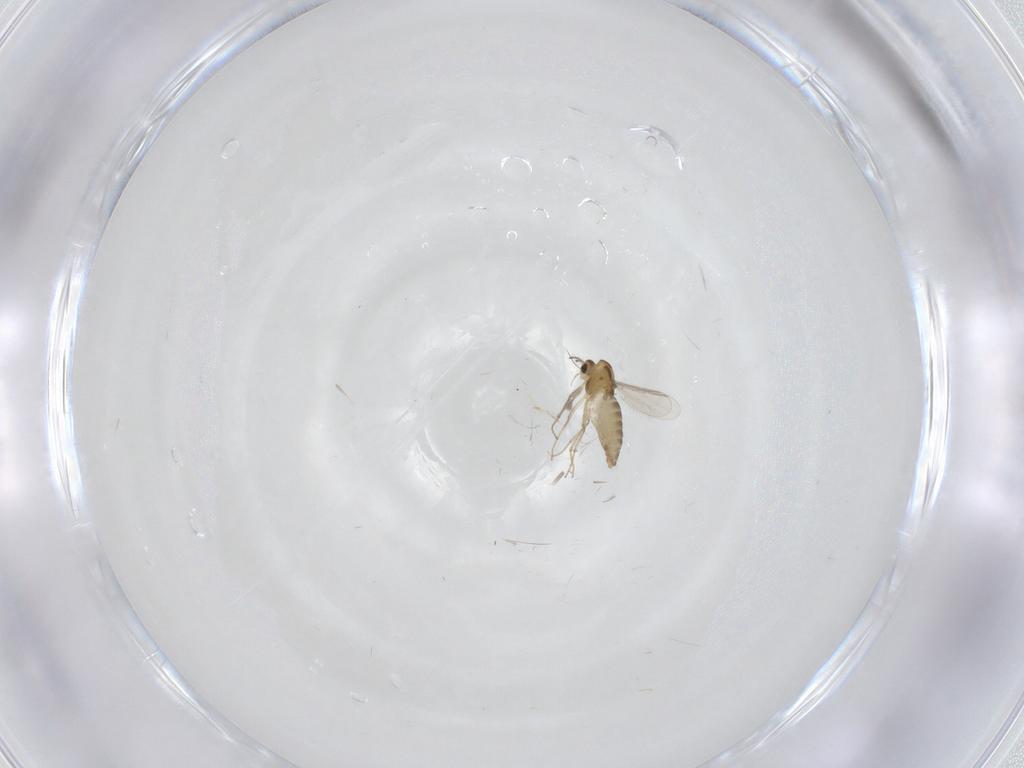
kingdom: Animalia
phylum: Arthropoda
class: Insecta
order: Diptera
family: Chironomidae
